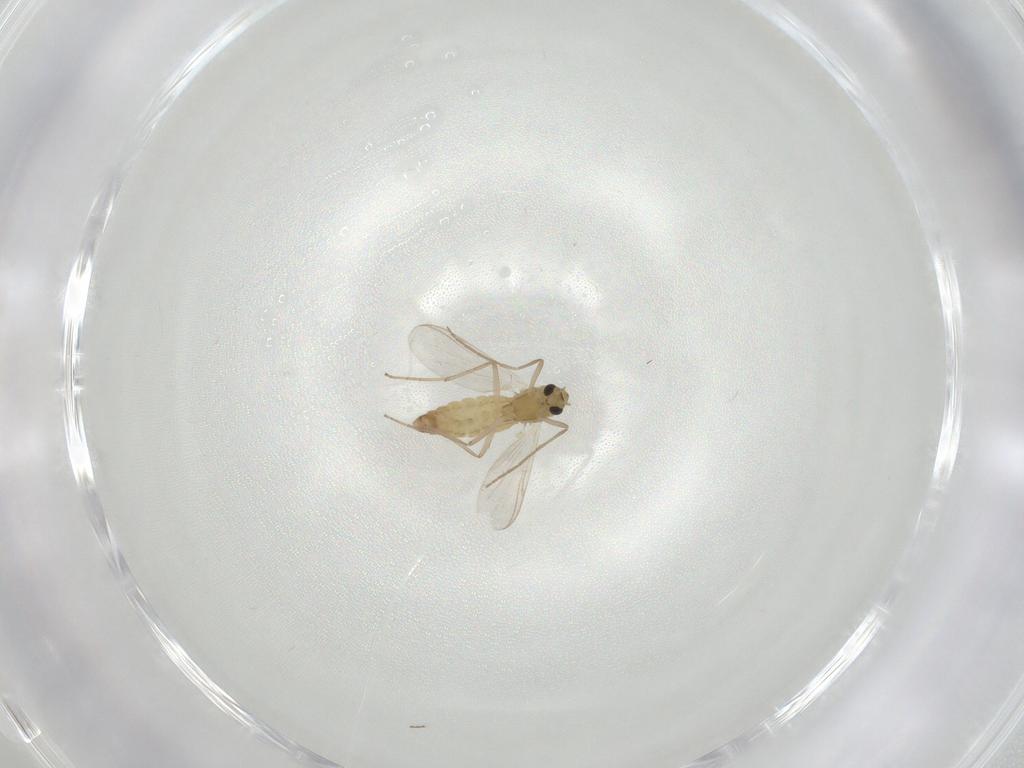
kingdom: Animalia
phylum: Arthropoda
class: Insecta
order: Diptera
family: Chironomidae
